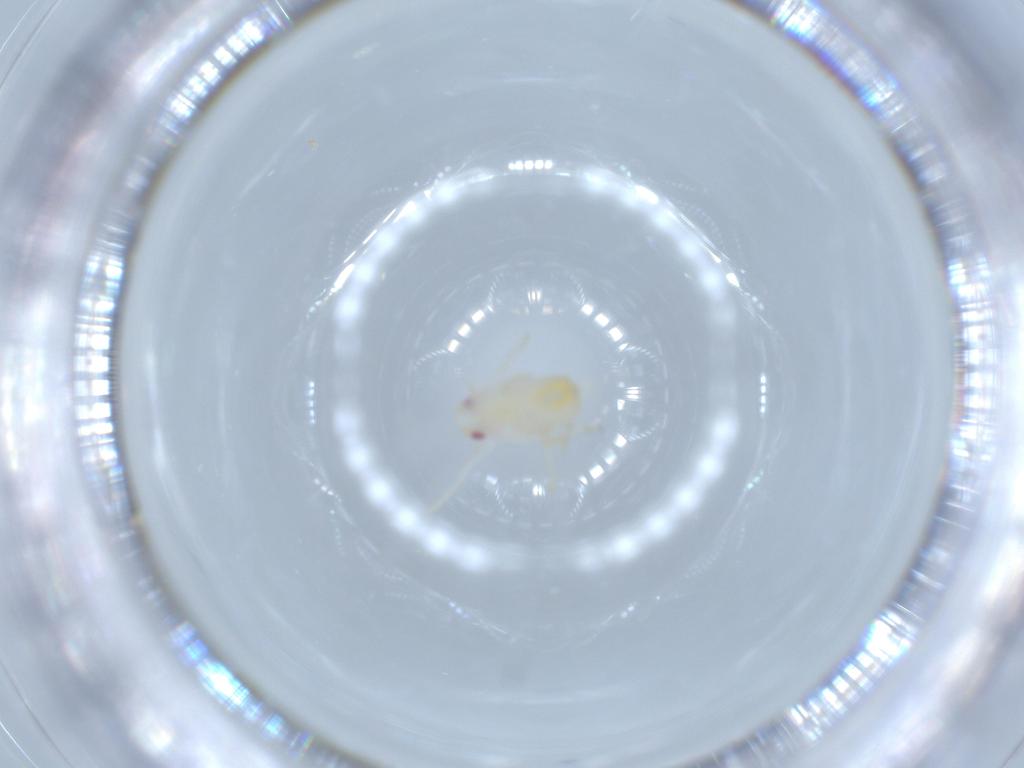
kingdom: Animalia
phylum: Arthropoda
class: Insecta
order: Hemiptera
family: Flatidae
